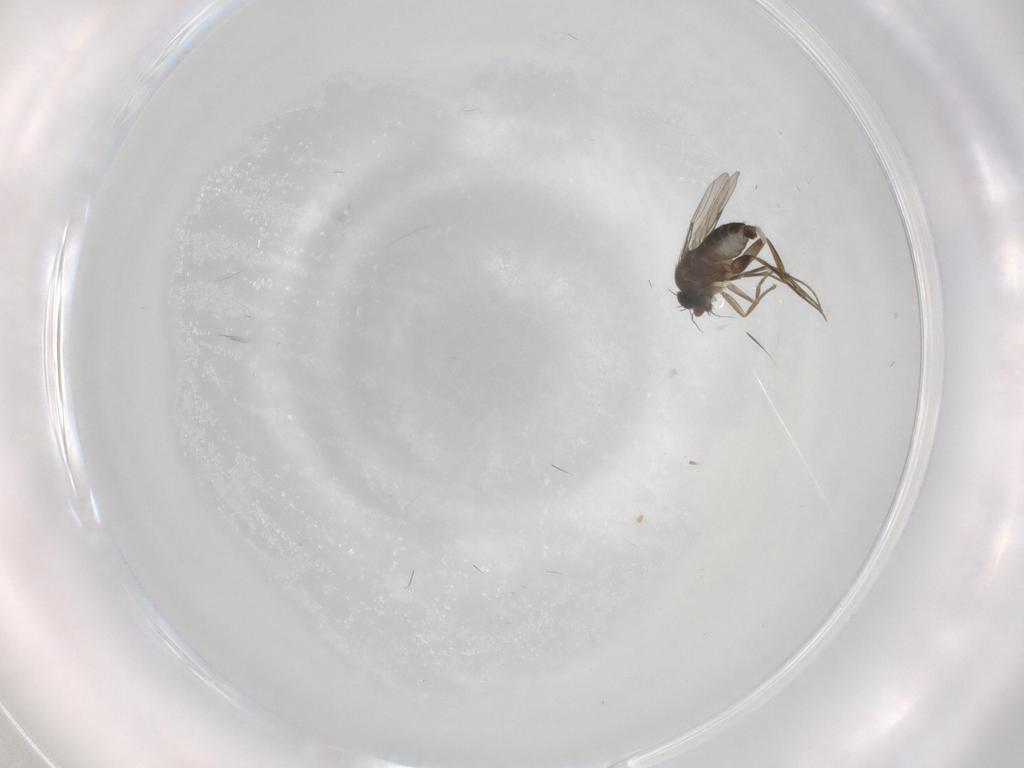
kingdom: Animalia
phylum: Arthropoda
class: Insecta
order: Diptera
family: Phoridae
